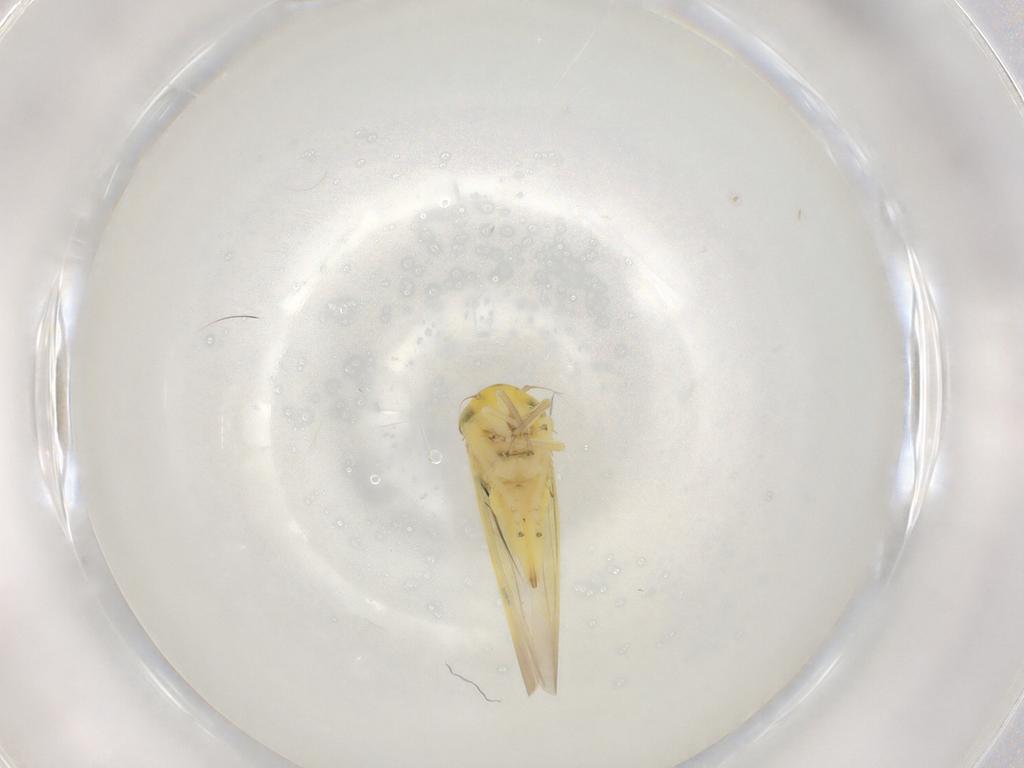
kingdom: Animalia
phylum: Arthropoda
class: Insecta
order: Hemiptera
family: Cicadellidae
